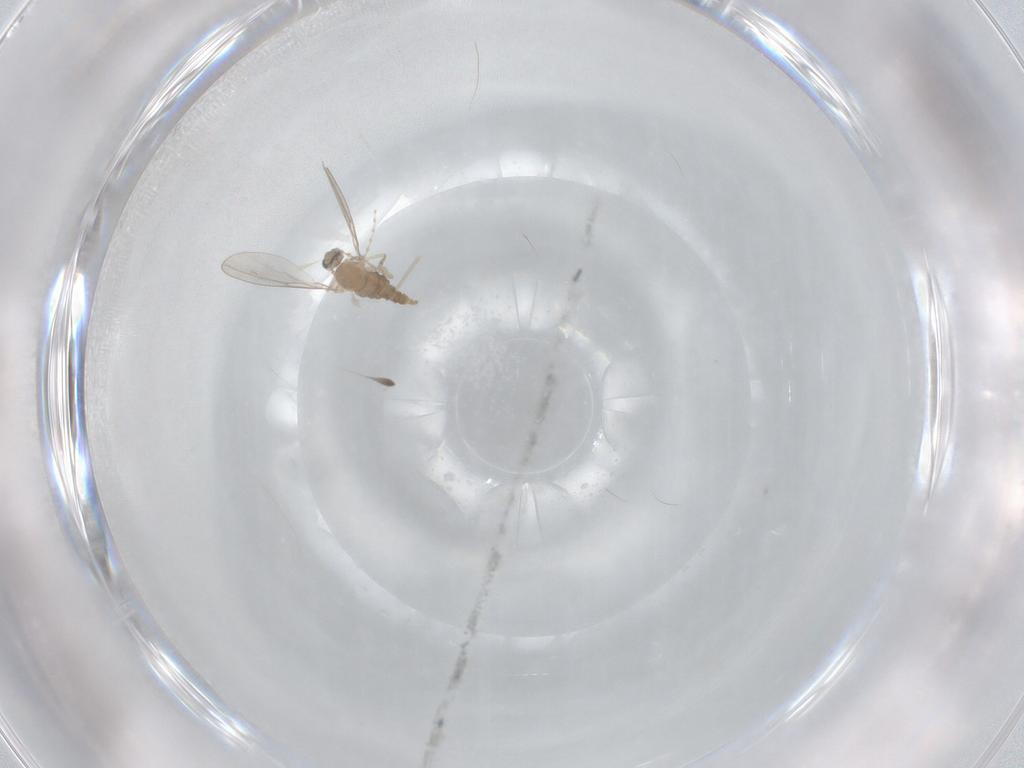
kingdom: Animalia
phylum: Arthropoda
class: Insecta
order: Diptera
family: Cecidomyiidae
